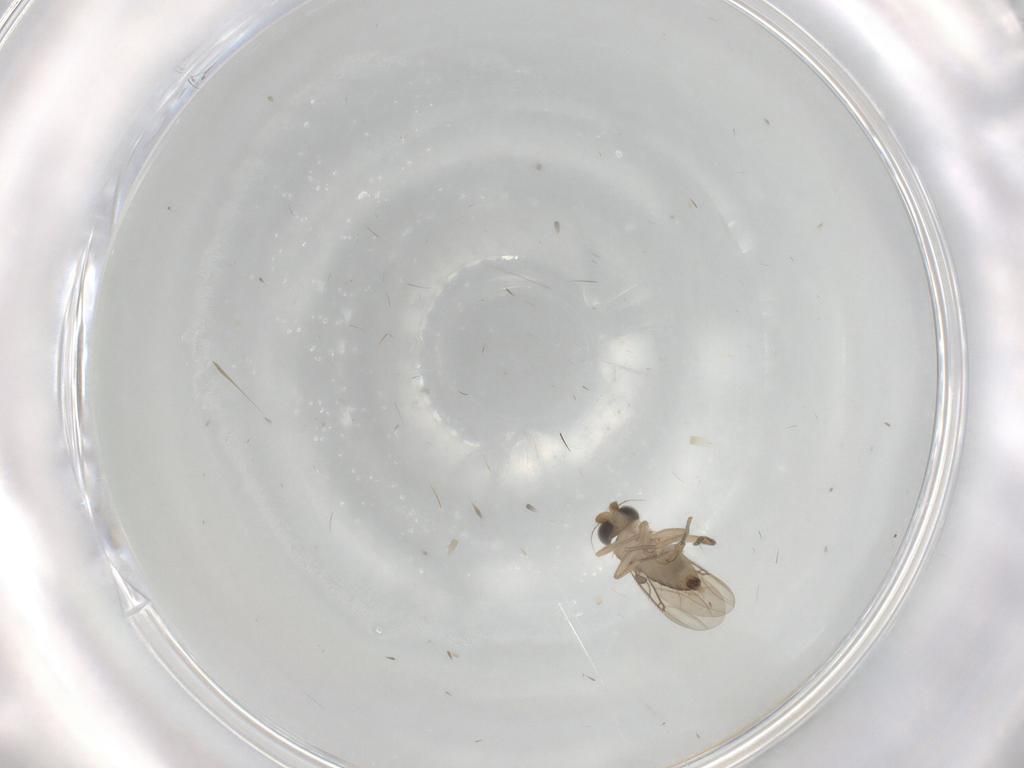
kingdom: Animalia
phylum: Arthropoda
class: Insecta
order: Diptera
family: Phoridae
